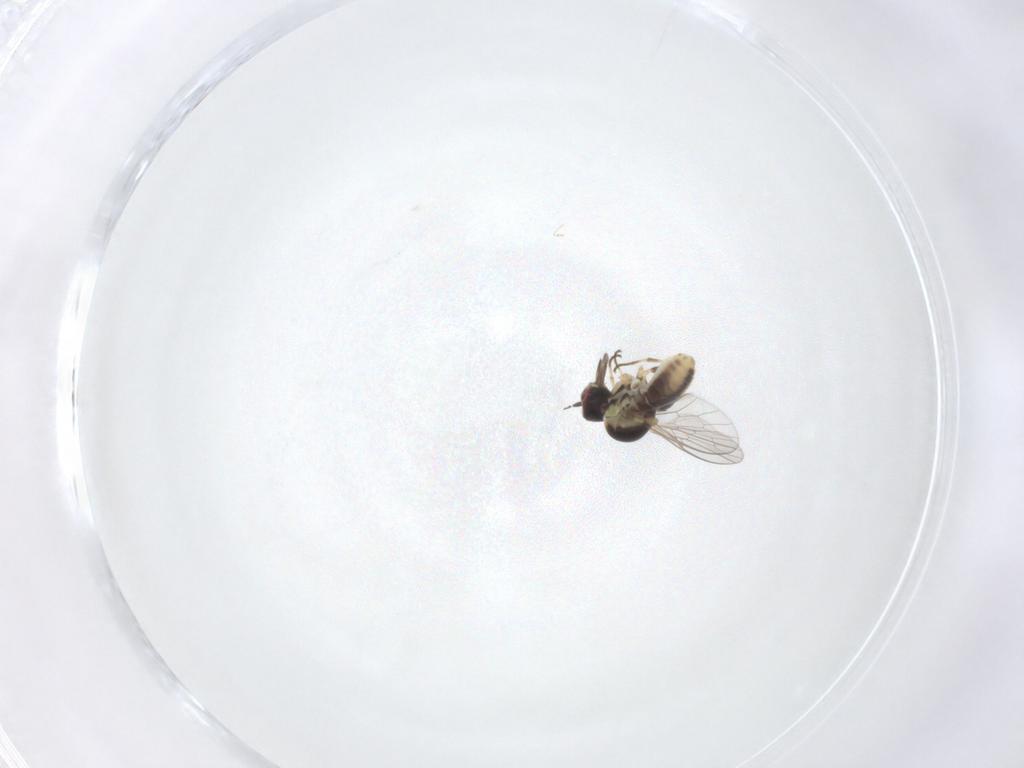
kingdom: Animalia
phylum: Arthropoda
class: Insecta
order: Diptera
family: Mythicomyiidae
